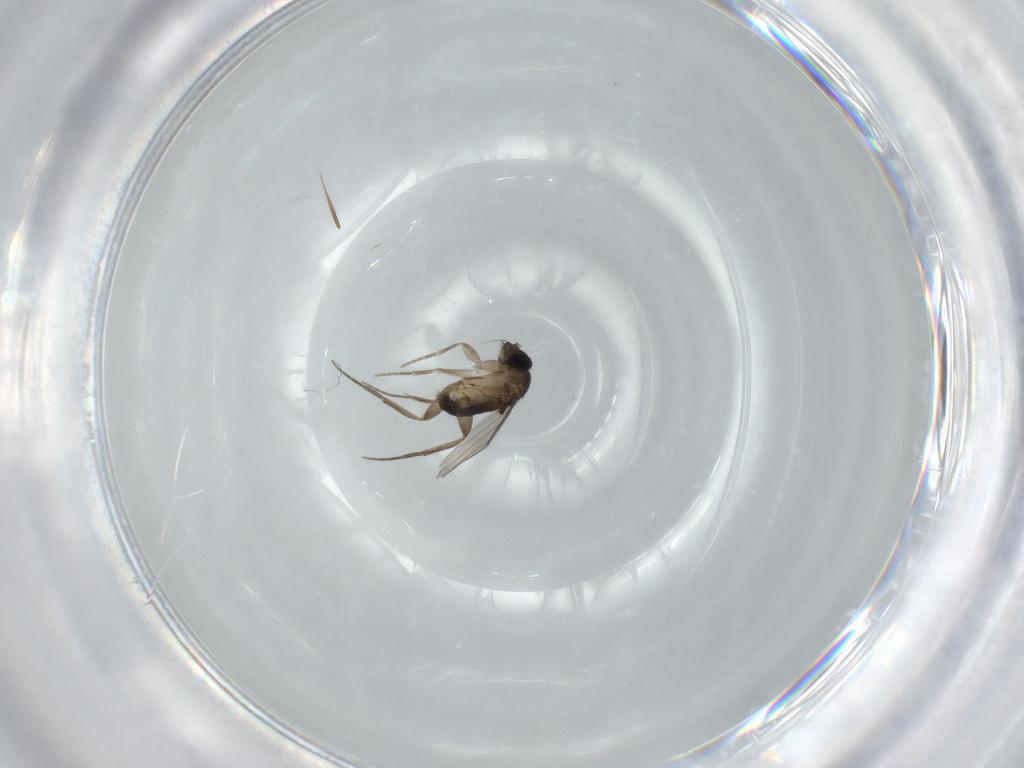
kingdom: Animalia
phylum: Arthropoda
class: Insecta
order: Diptera
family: Phoridae
